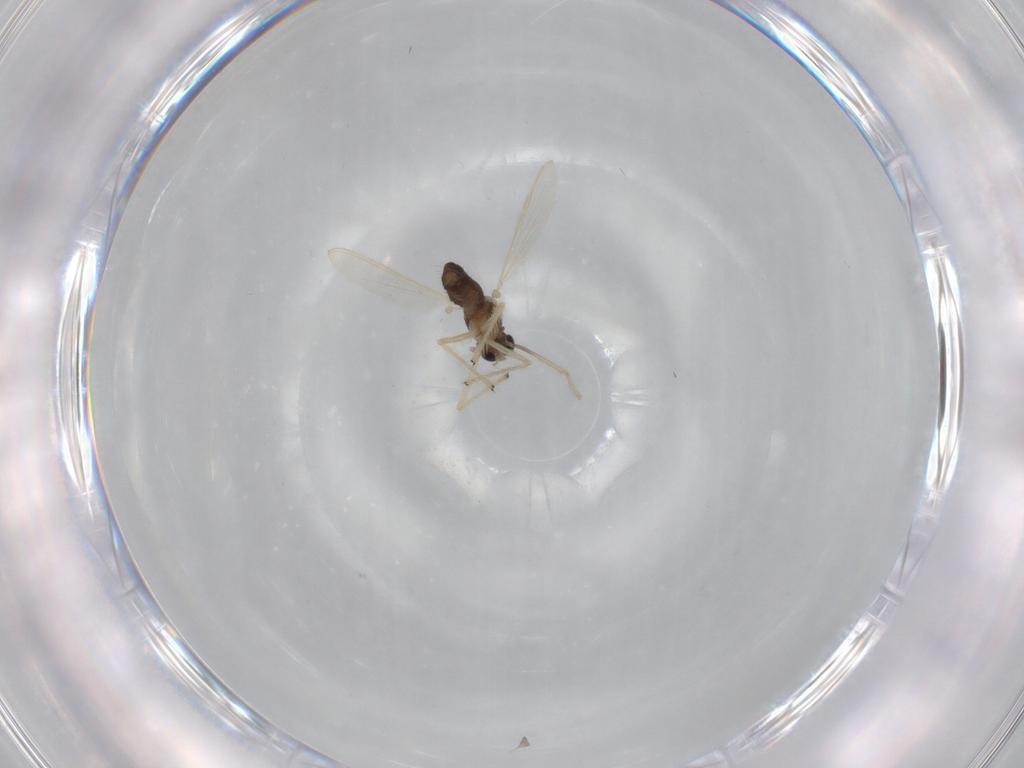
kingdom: Animalia
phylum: Arthropoda
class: Insecta
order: Diptera
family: Chironomidae
